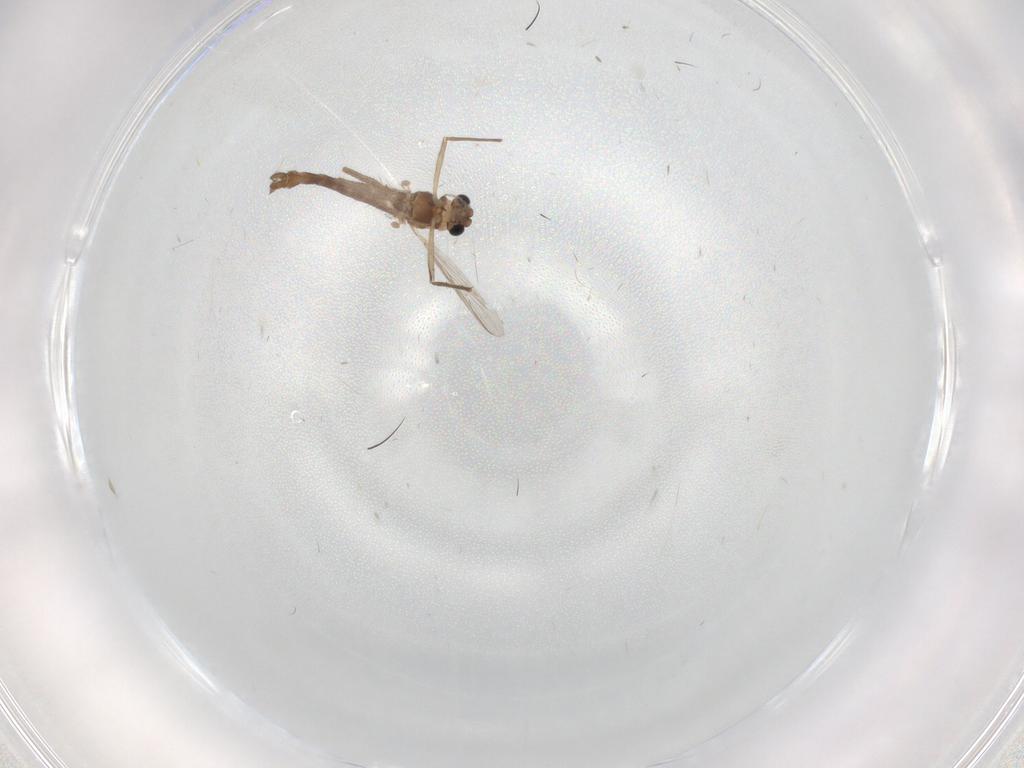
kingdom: Animalia
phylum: Arthropoda
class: Insecta
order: Diptera
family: Chironomidae
